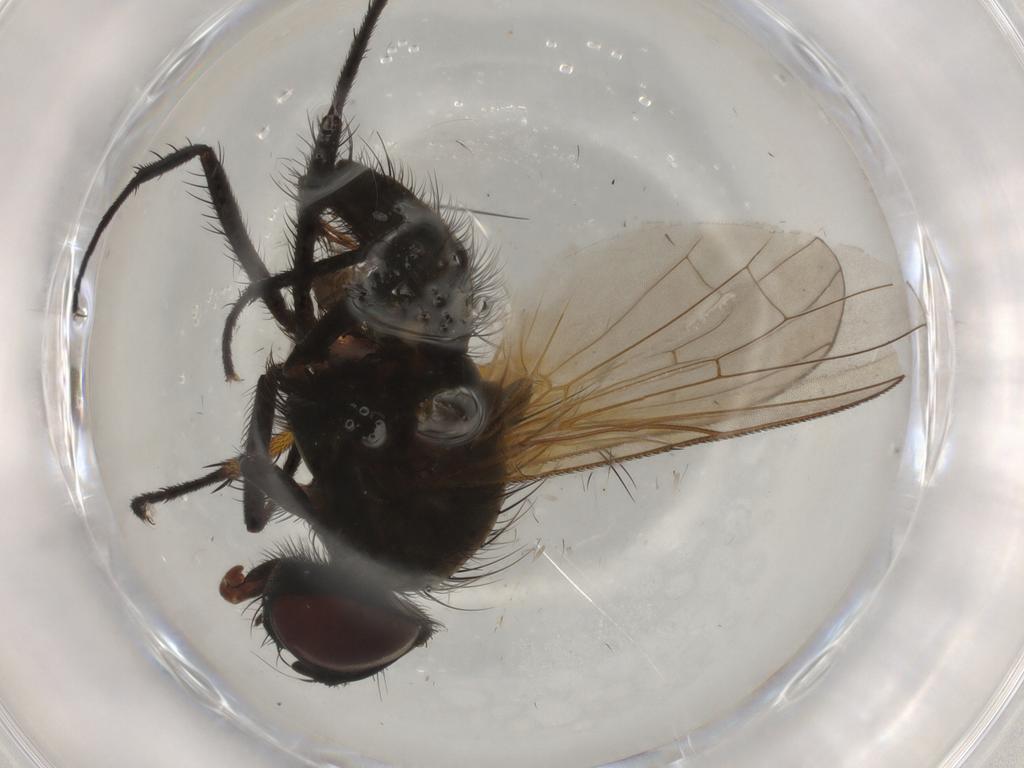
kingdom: Animalia
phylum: Arthropoda
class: Insecta
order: Diptera
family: Anthomyiidae
